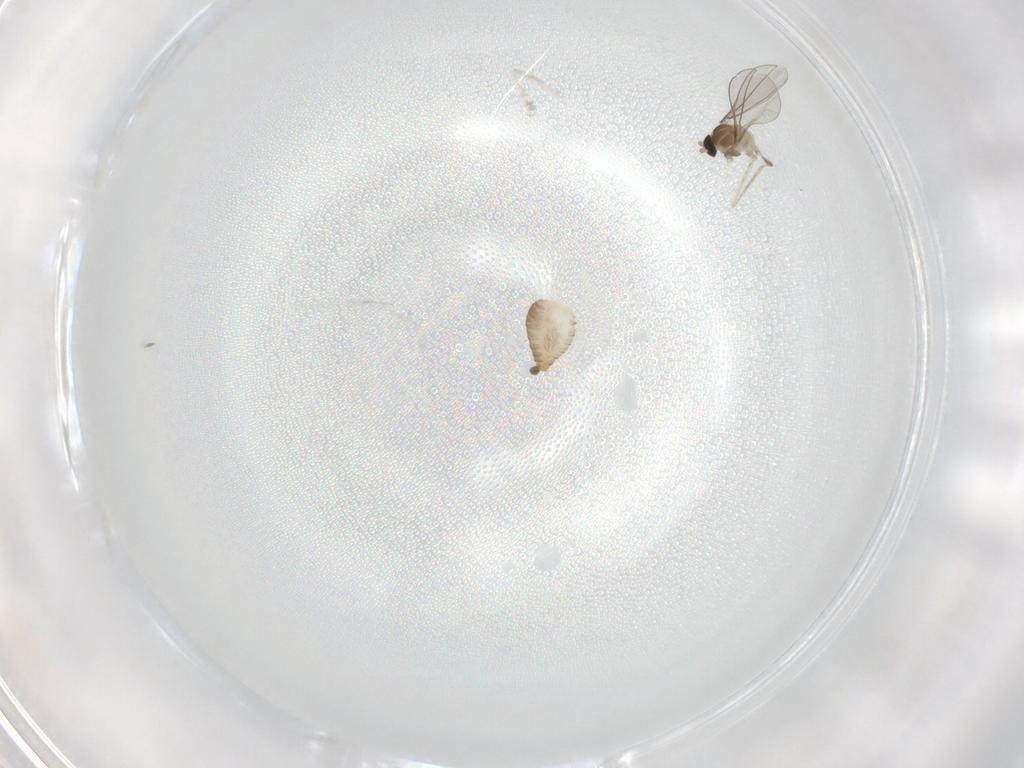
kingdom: Animalia
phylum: Arthropoda
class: Insecta
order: Diptera
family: Cecidomyiidae
